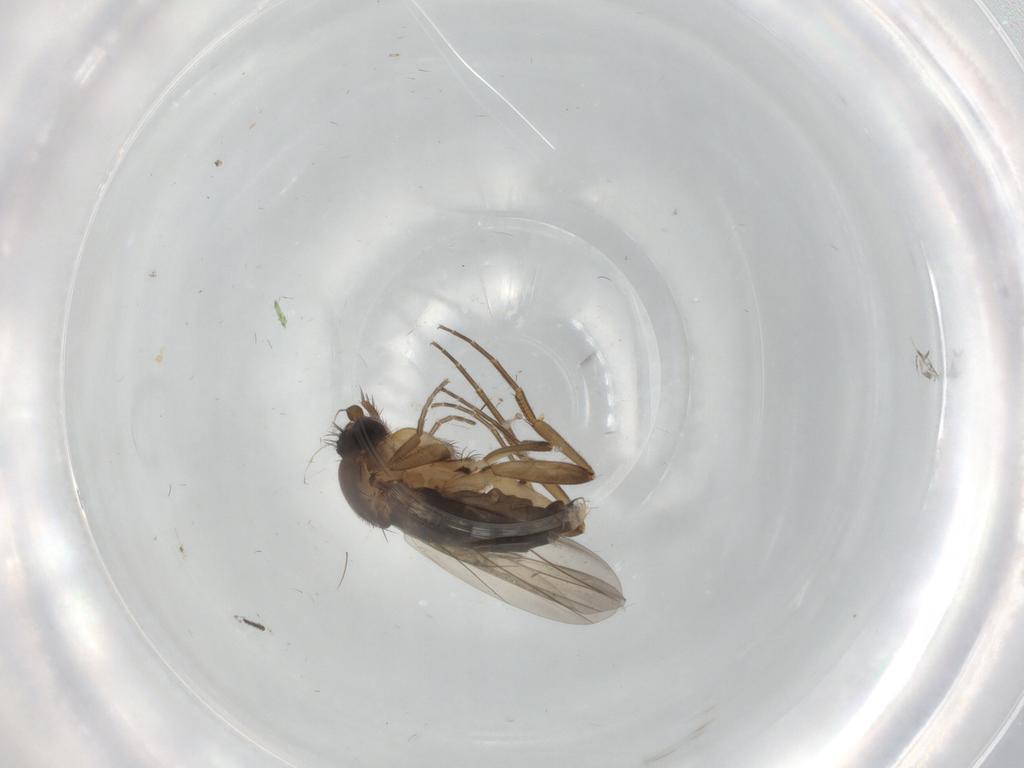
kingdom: Animalia
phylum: Arthropoda
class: Insecta
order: Diptera
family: Phoridae
